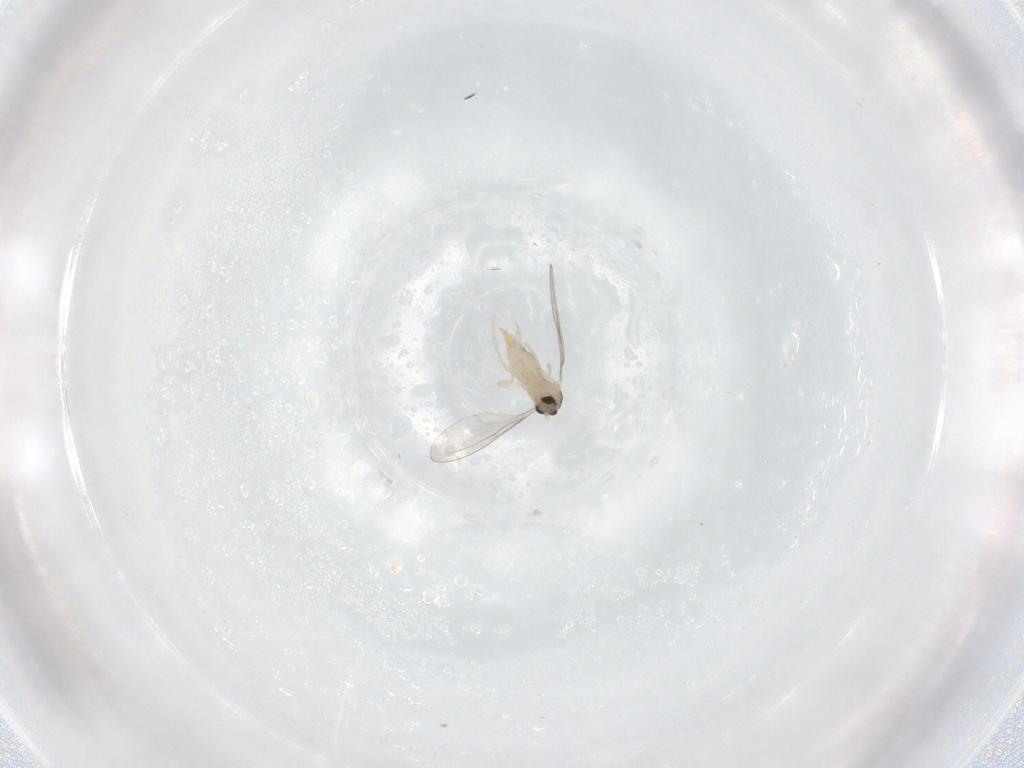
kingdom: Animalia
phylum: Arthropoda
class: Insecta
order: Diptera
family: Cecidomyiidae
